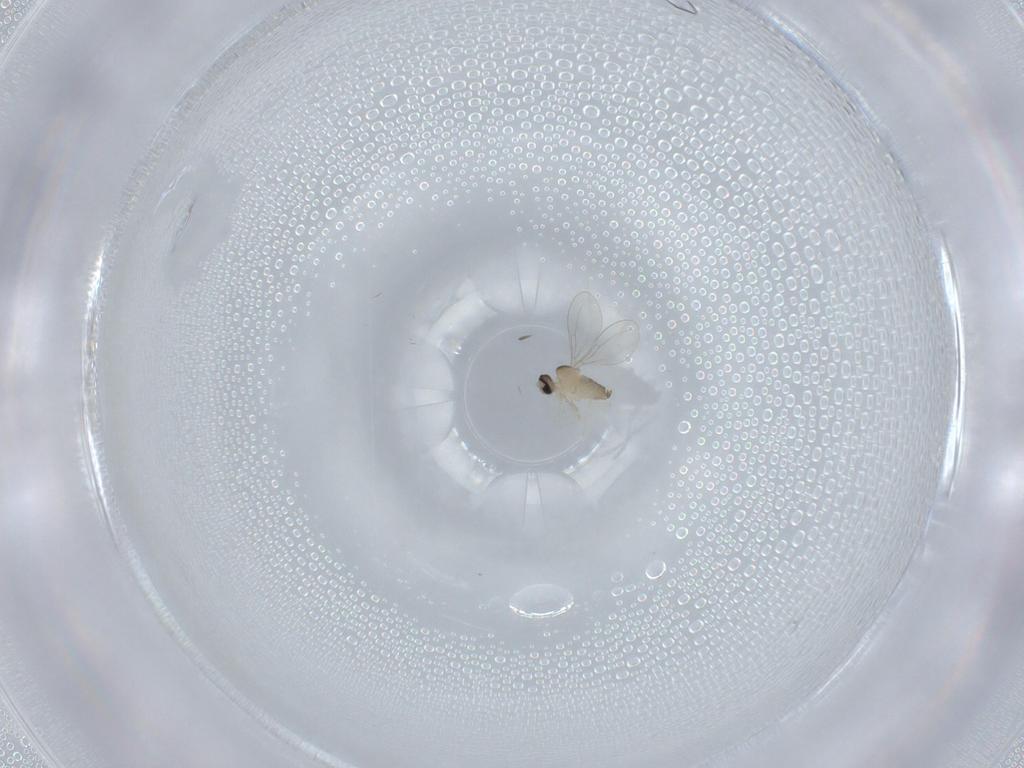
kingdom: Animalia
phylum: Arthropoda
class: Insecta
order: Diptera
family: Cecidomyiidae
